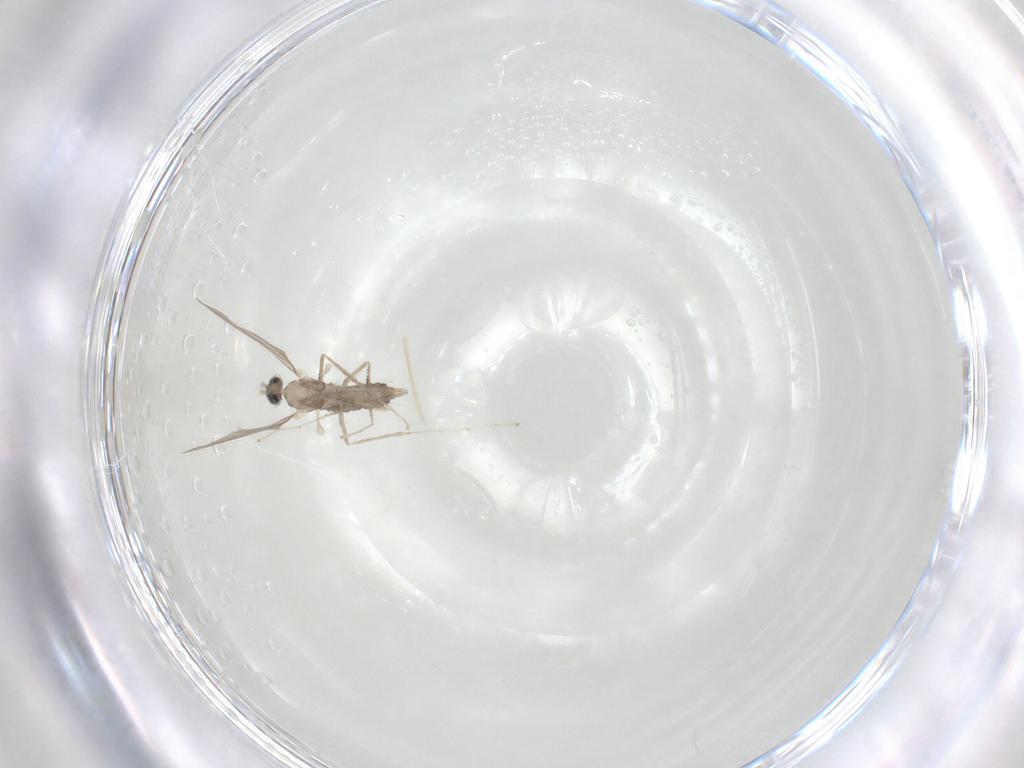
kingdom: Animalia
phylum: Arthropoda
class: Insecta
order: Diptera
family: Cecidomyiidae
